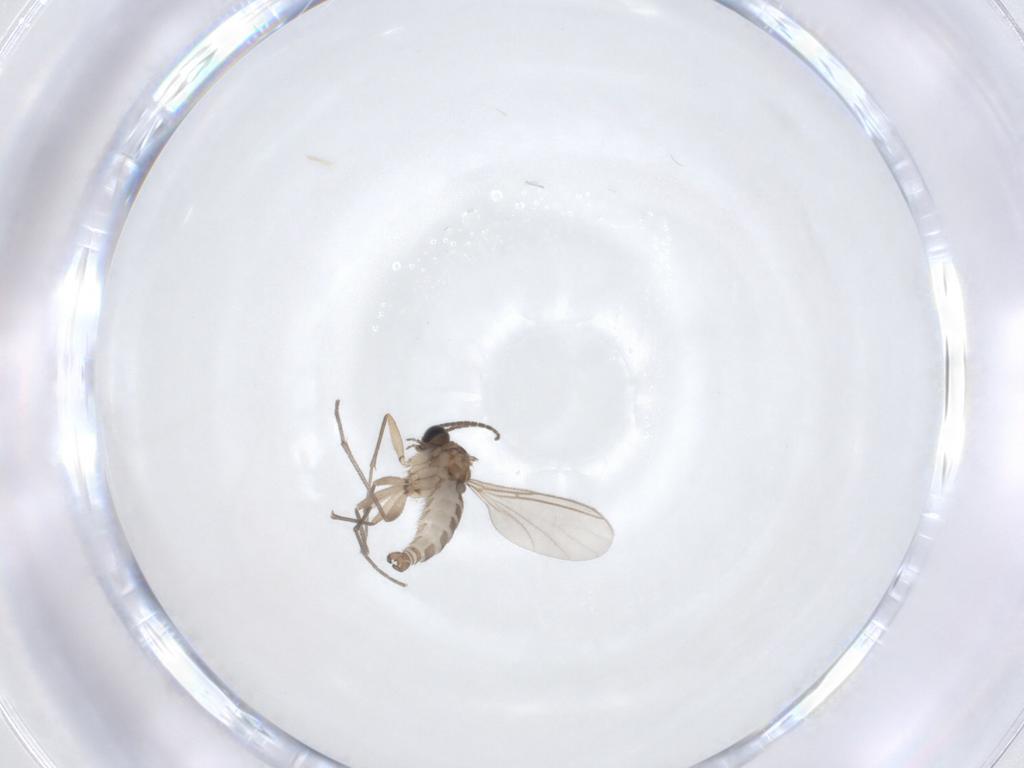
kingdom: Animalia
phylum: Arthropoda
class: Insecta
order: Diptera
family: Sciaridae
